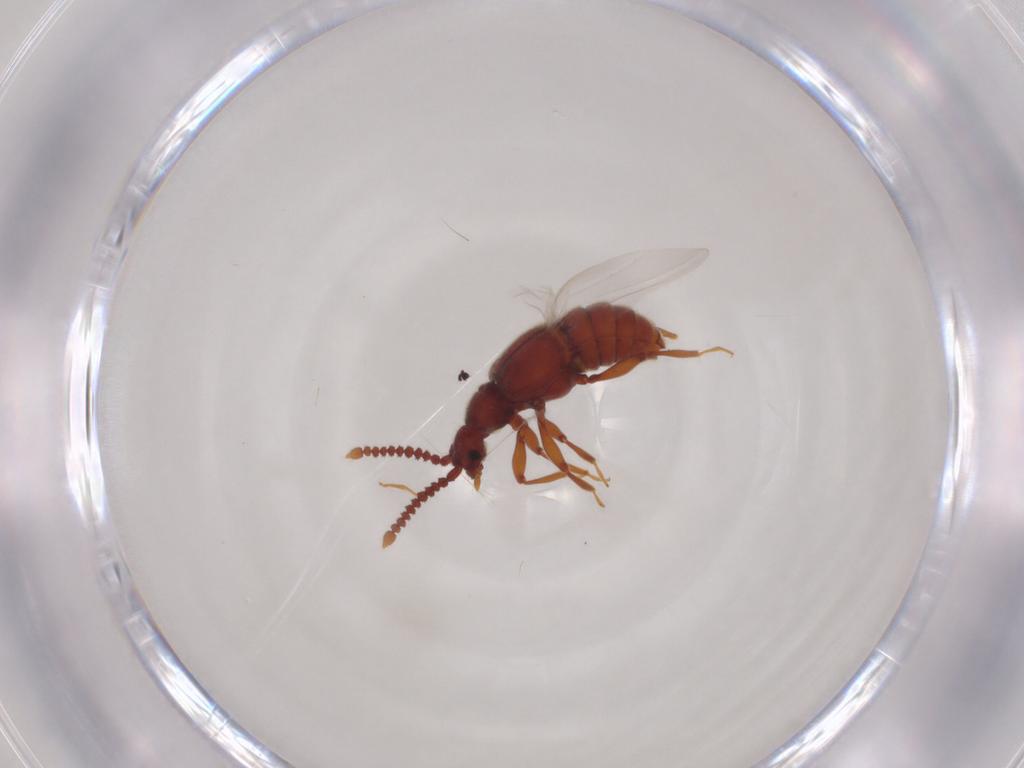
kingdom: Animalia
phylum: Arthropoda
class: Insecta
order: Coleoptera
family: Staphylinidae
